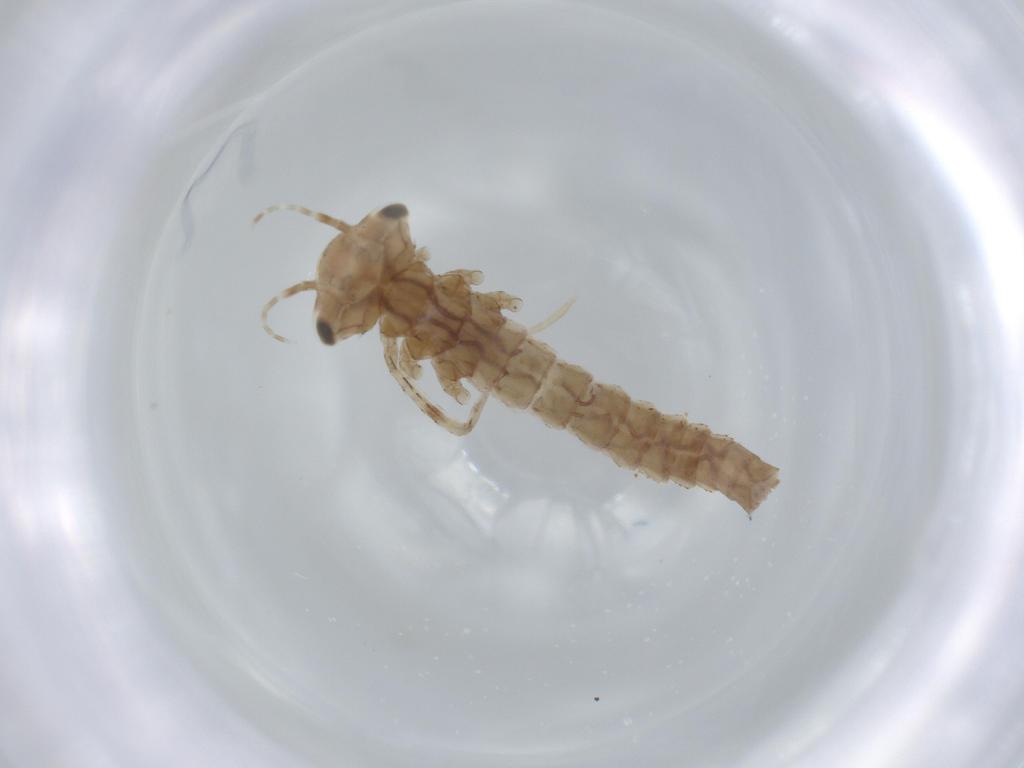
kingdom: Animalia
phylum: Arthropoda
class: Insecta
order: Odonata
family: Coenagrionidae
